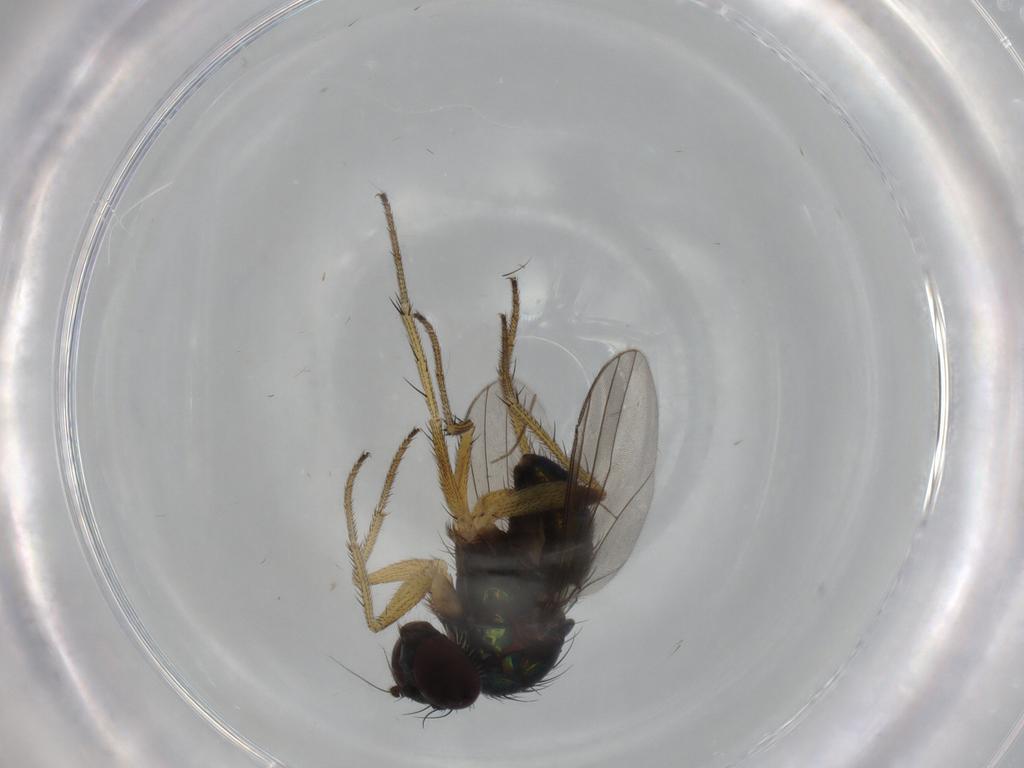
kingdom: Animalia
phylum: Arthropoda
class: Insecta
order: Diptera
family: Dolichopodidae
